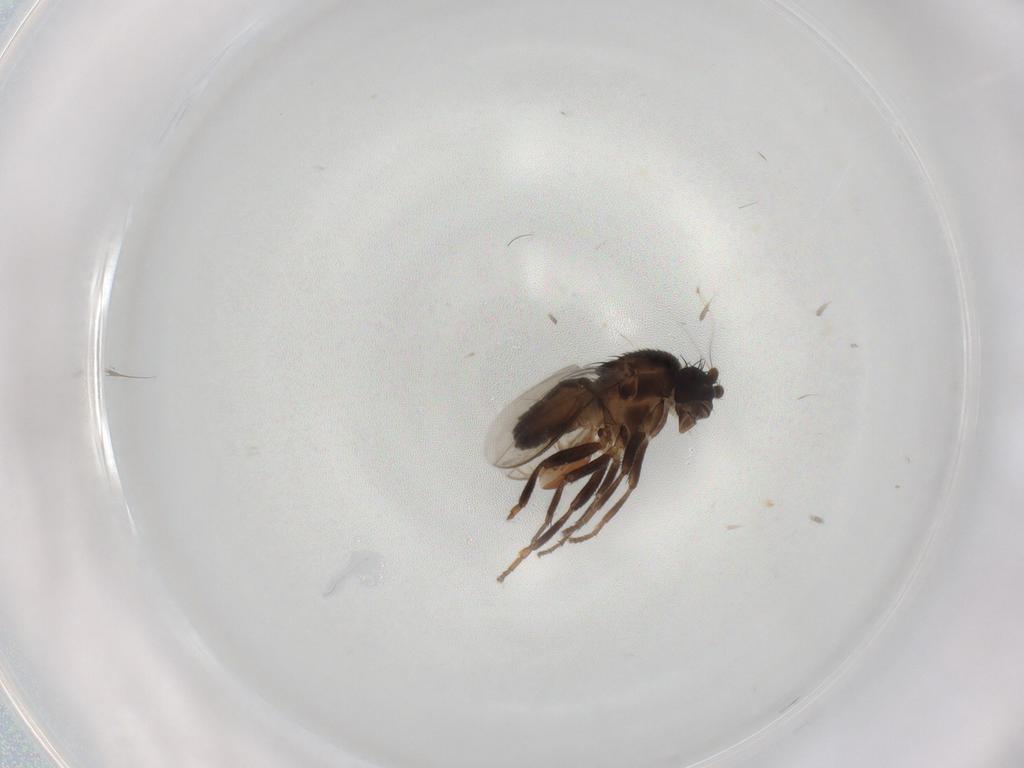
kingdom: Animalia
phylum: Arthropoda
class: Insecta
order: Diptera
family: Sphaeroceridae
